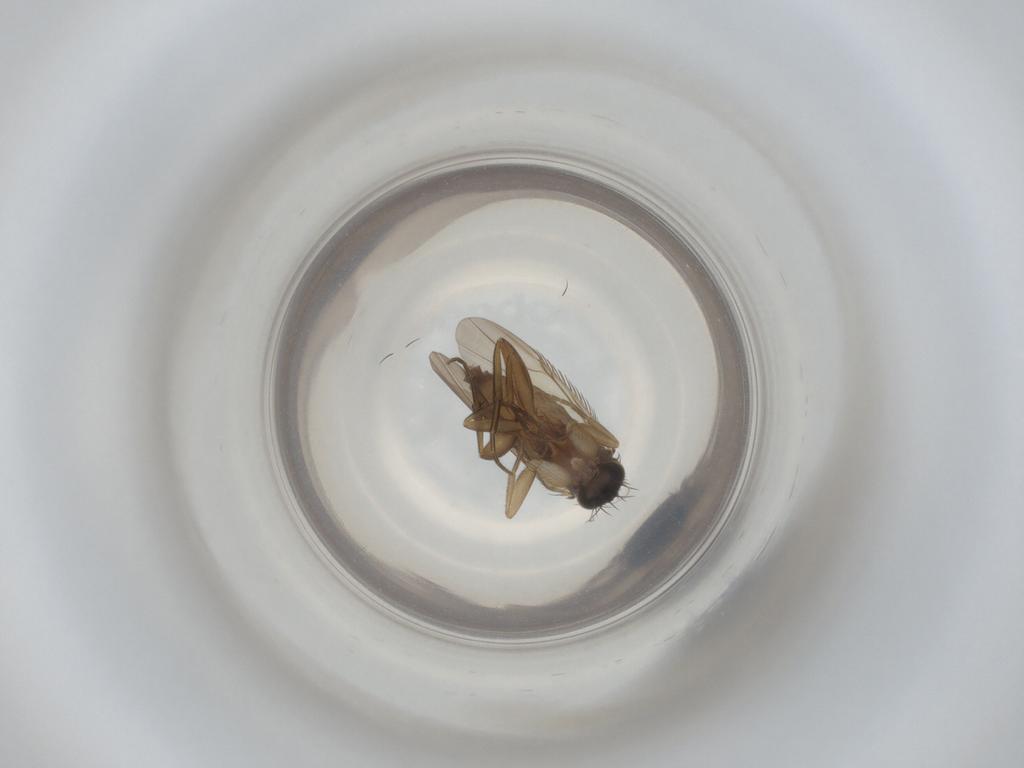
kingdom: Animalia
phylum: Arthropoda
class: Insecta
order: Diptera
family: Phoridae
